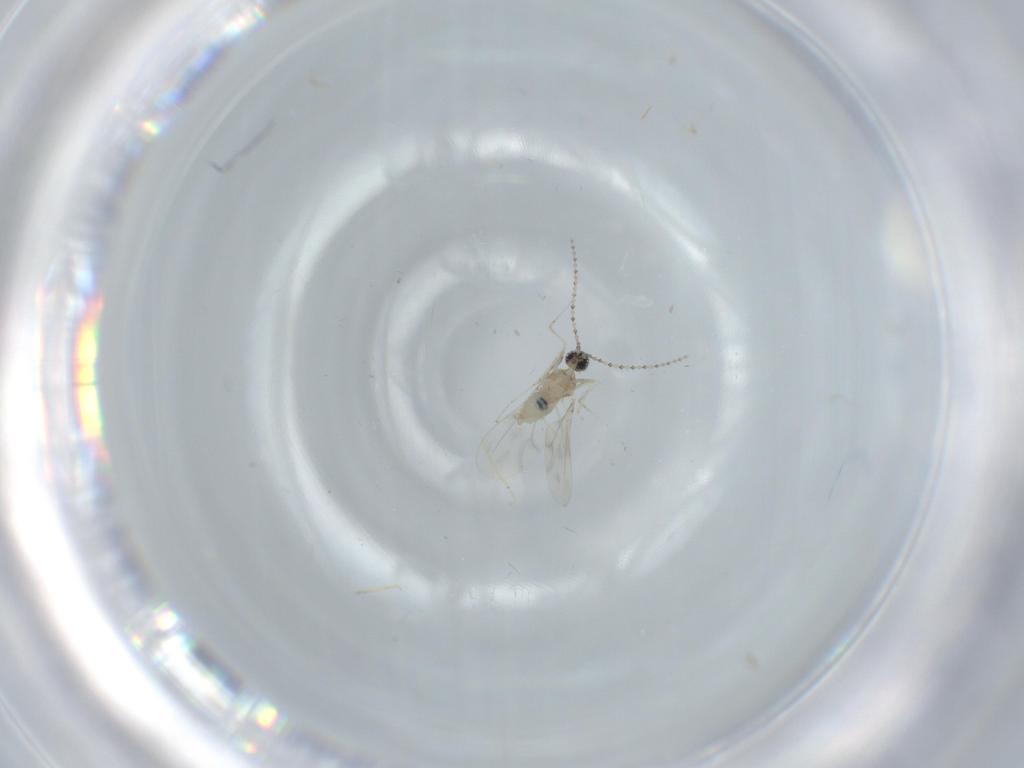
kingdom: Animalia
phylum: Arthropoda
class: Insecta
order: Diptera
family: Cecidomyiidae
